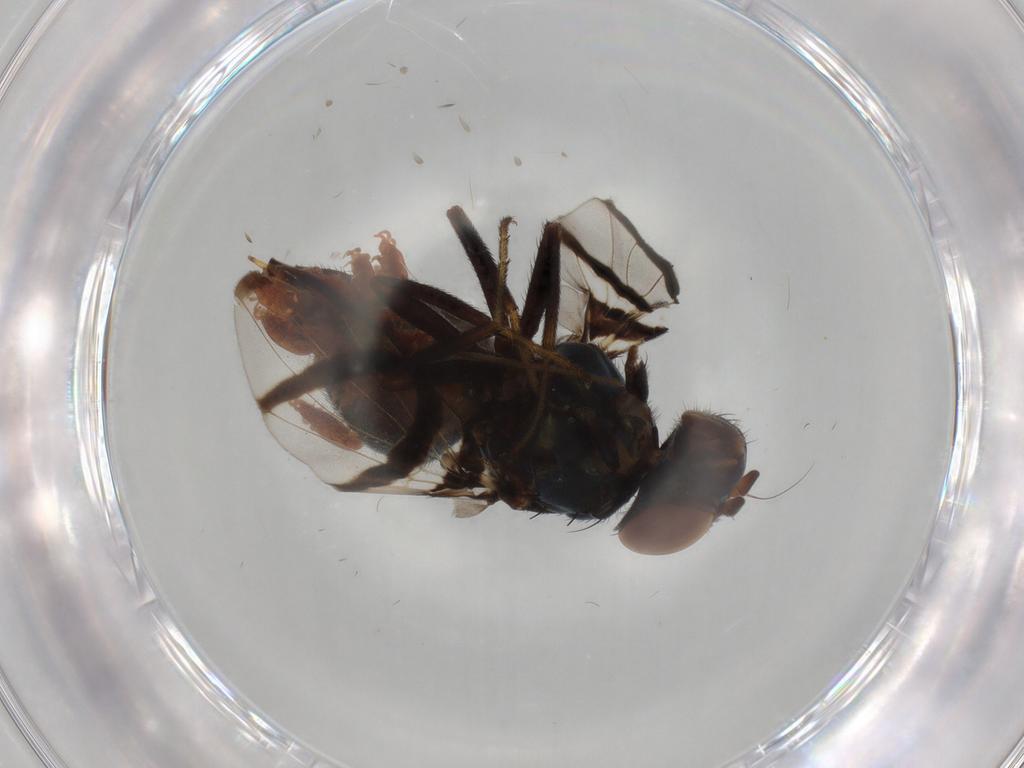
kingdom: Animalia
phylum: Arthropoda
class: Insecta
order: Diptera
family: Ulidiidae
